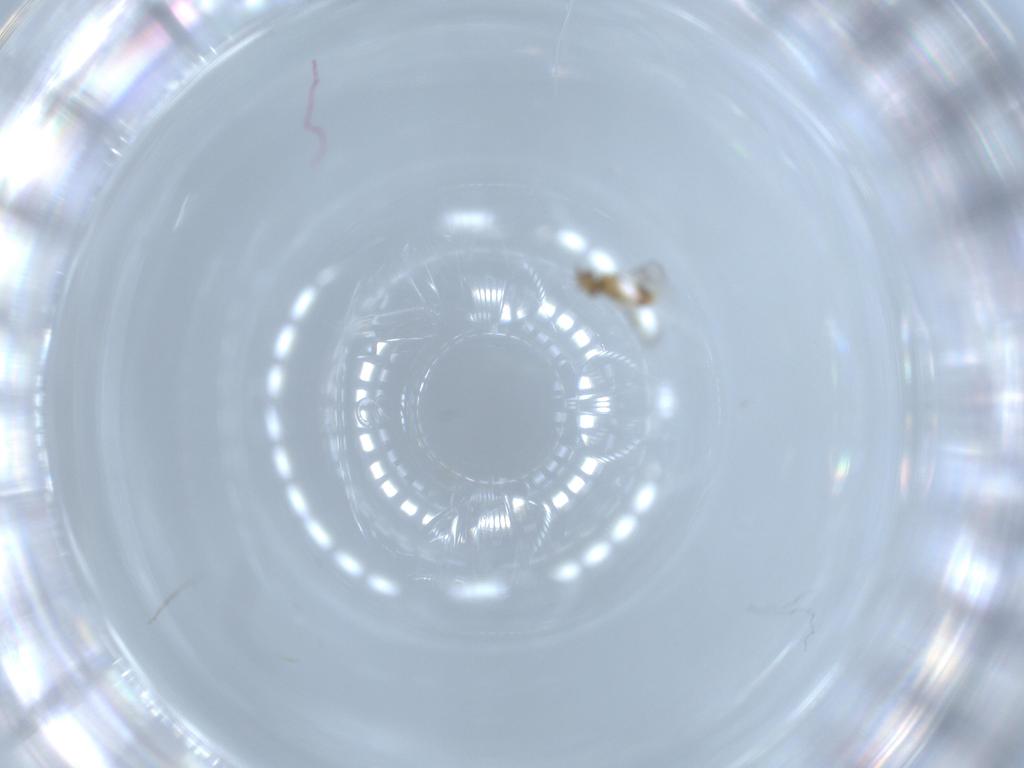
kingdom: Animalia
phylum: Arthropoda
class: Insecta
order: Hymenoptera
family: Aphelinidae
